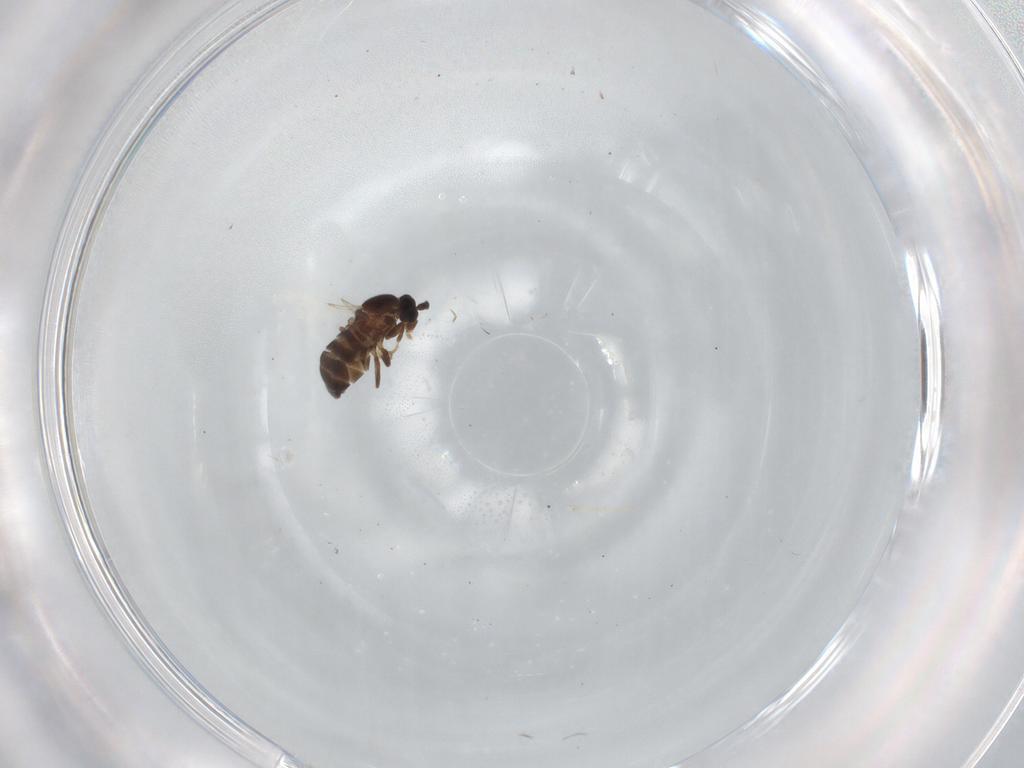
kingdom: Animalia
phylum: Arthropoda
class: Insecta
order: Diptera
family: Scatopsidae
